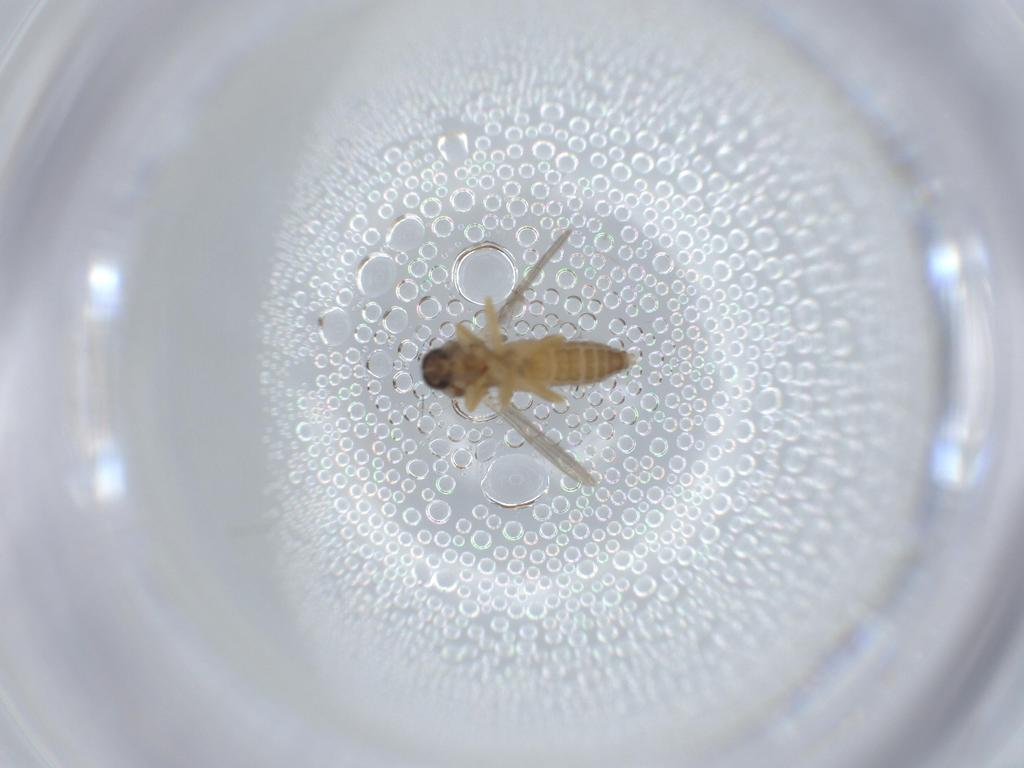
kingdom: Animalia
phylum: Arthropoda
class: Insecta
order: Diptera
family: Ceratopogonidae
